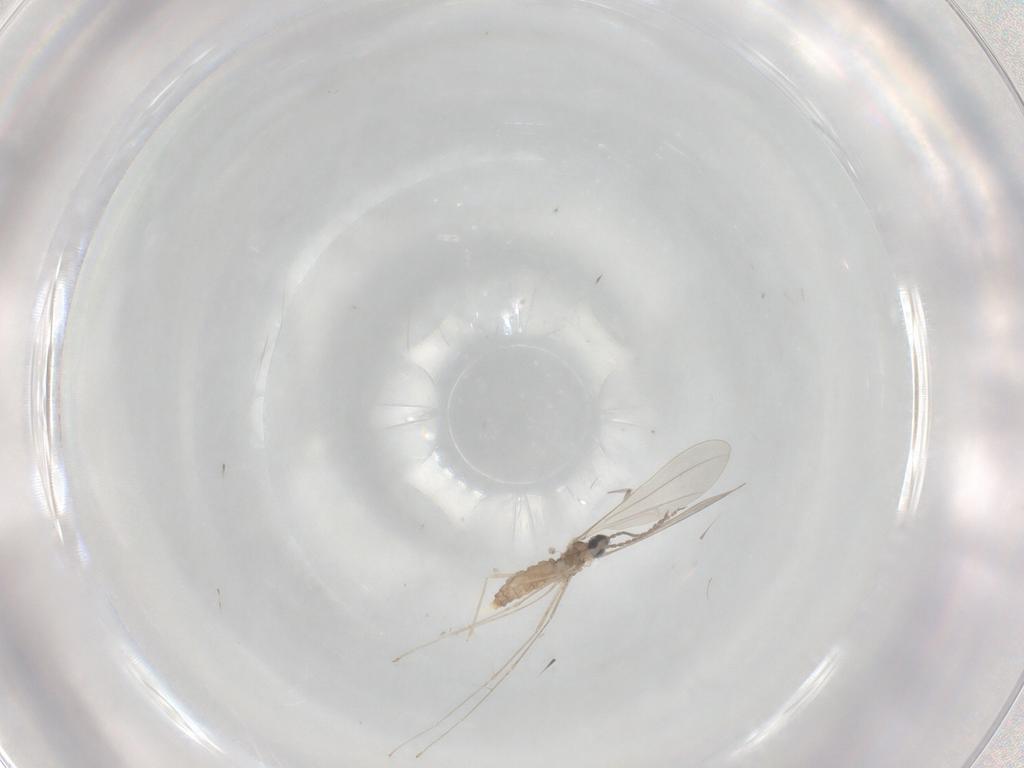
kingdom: Animalia
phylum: Arthropoda
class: Insecta
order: Diptera
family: Cecidomyiidae
